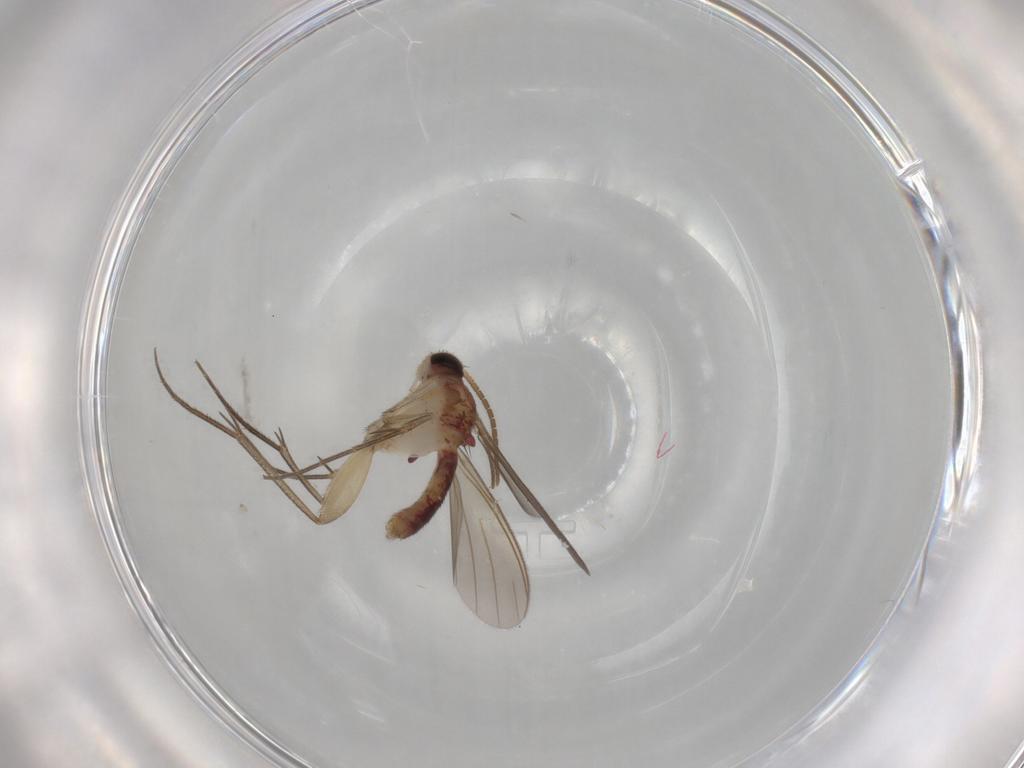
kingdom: Animalia
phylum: Arthropoda
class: Insecta
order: Diptera
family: Mycetophilidae
